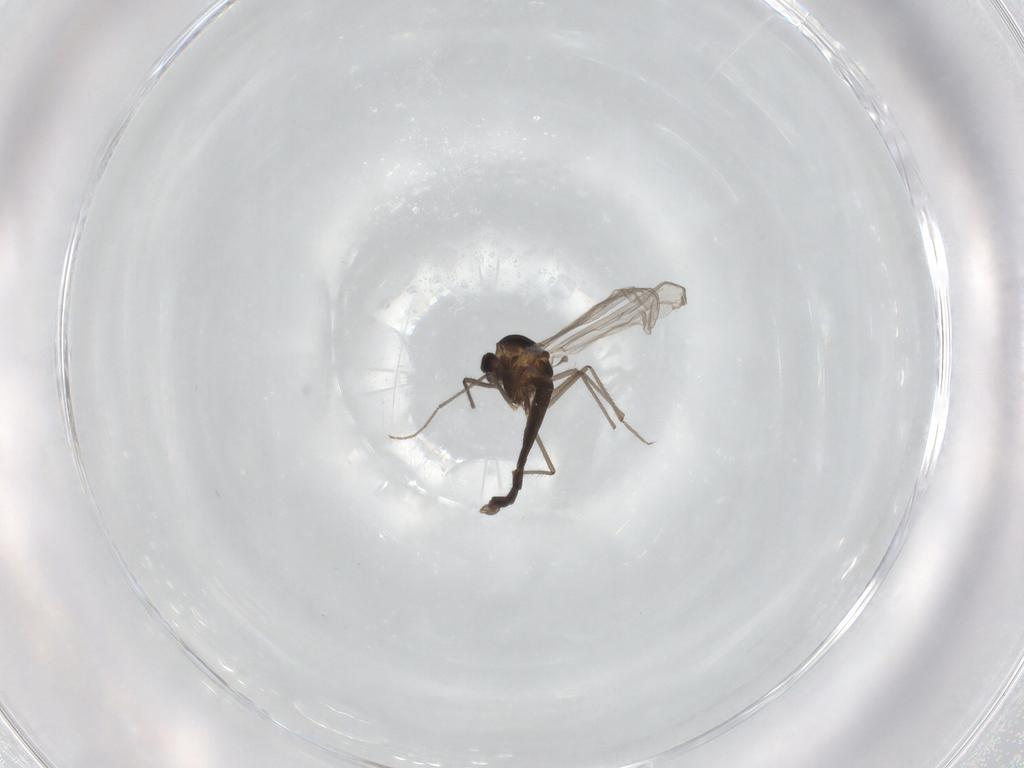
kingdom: Animalia
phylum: Arthropoda
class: Insecta
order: Diptera
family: Chironomidae
